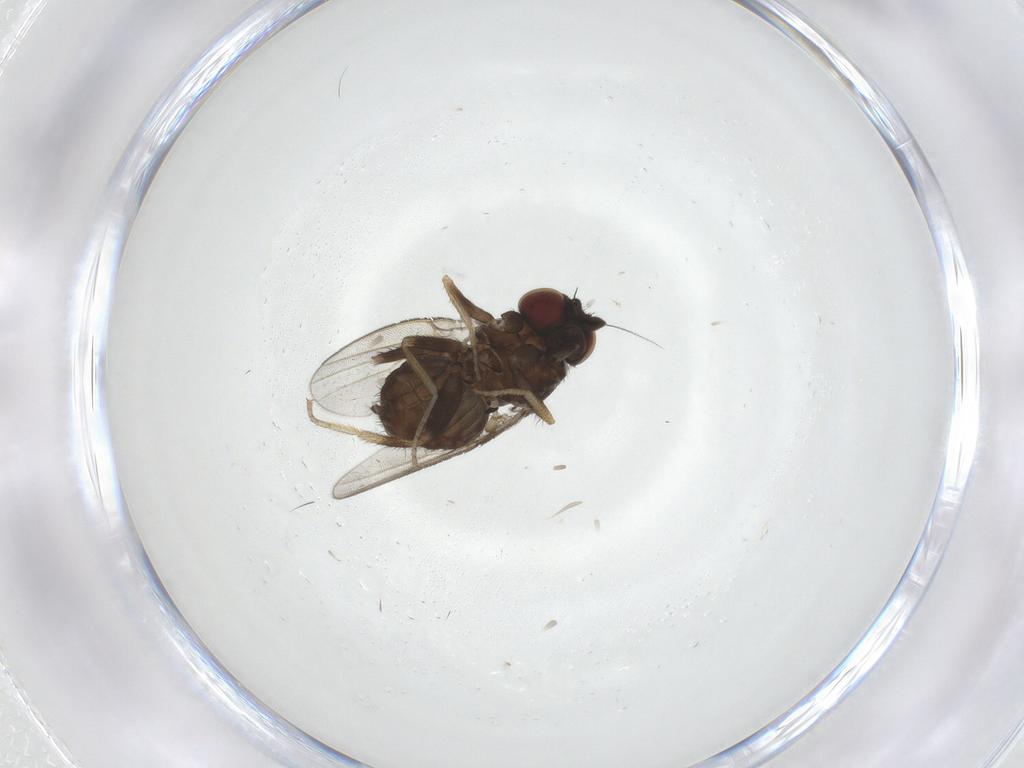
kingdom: Animalia
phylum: Arthropoda
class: Insecta
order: Diptera
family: Milichiidae
